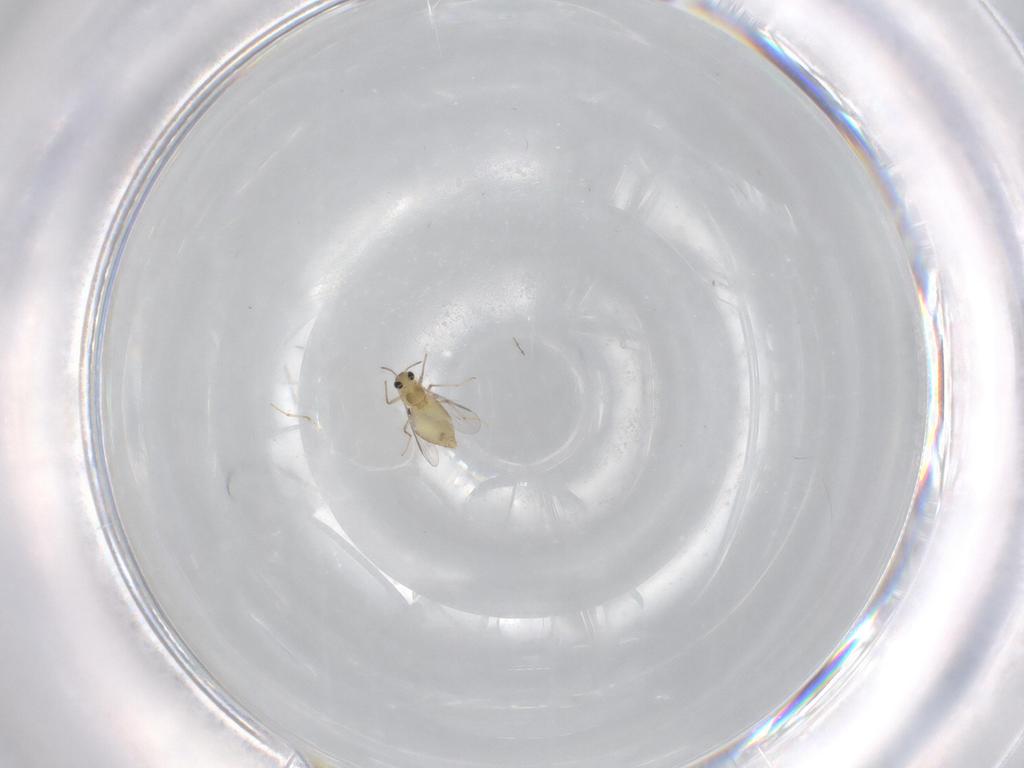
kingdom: Animalia
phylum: Arthropoda
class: Insecta
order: Diptera
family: Chironomidae
